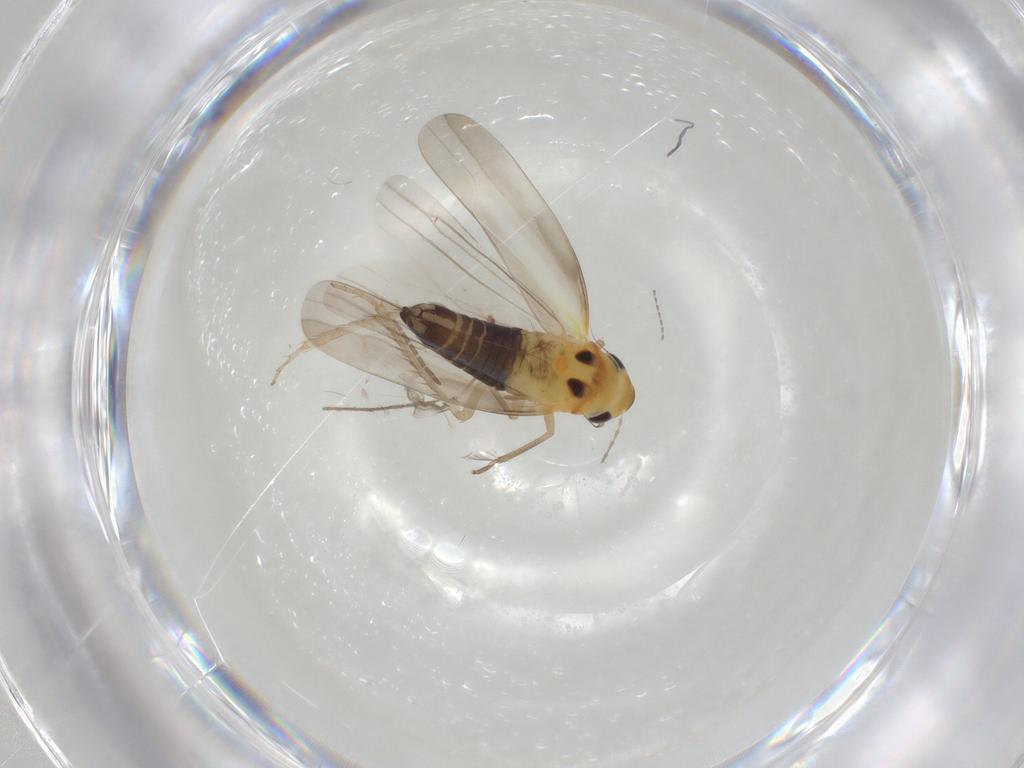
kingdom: Animalia
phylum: Arthropoda
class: Insecta
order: Hemiptera
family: Cicadellidae
